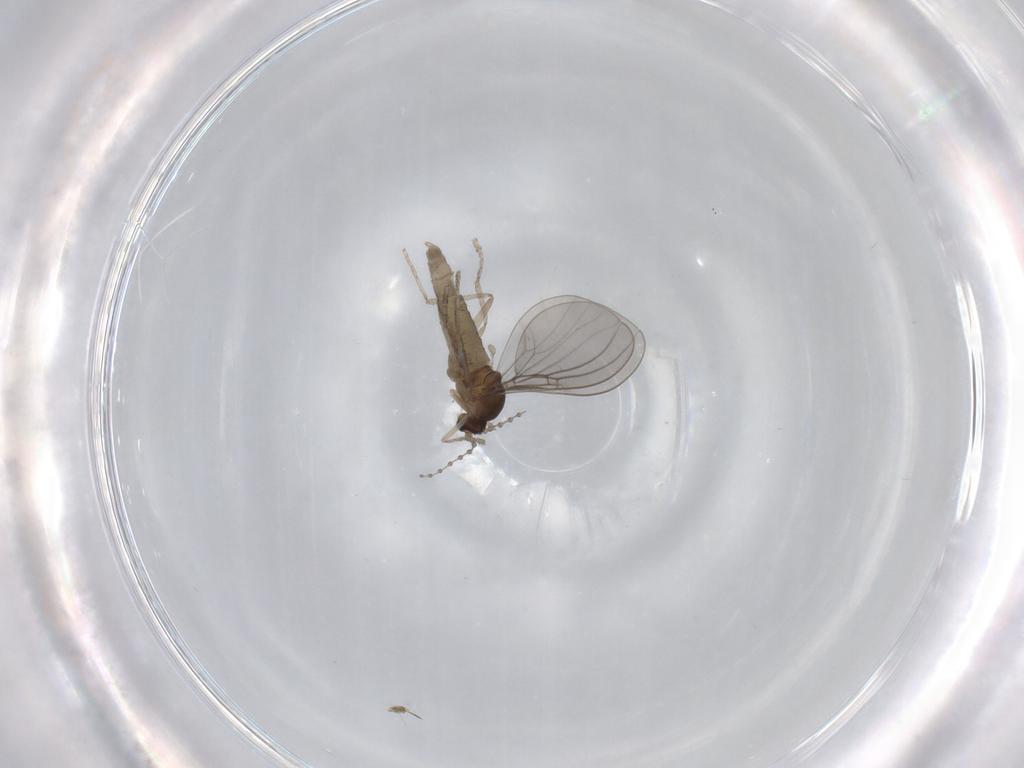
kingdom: Animalia
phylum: Arthropoda
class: Insecta
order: Diptera
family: Cecidomyiidae
